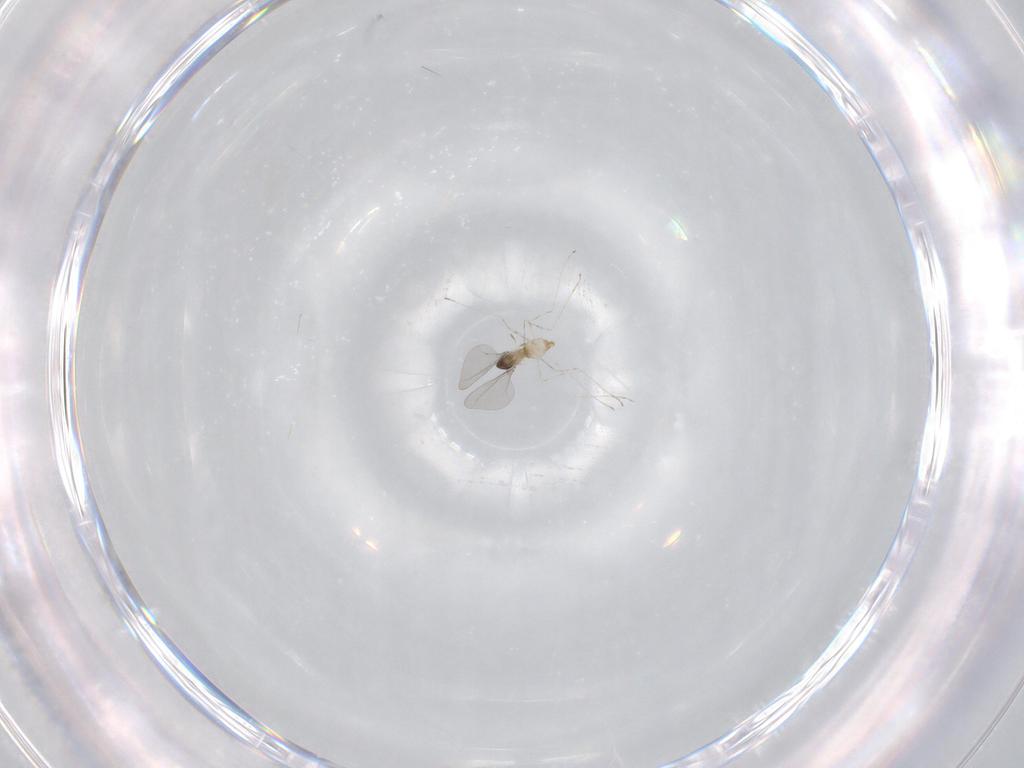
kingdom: Animalia
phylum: Arthropoda
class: Insecta
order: Diptera
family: Cecidomyiidae
